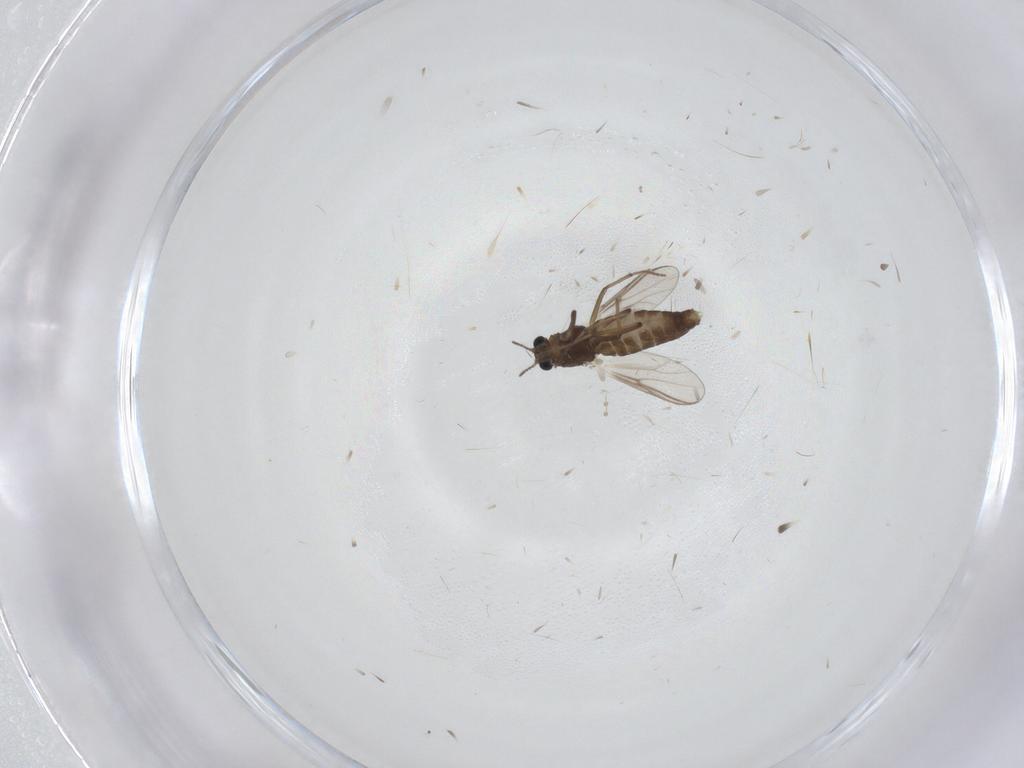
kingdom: Animalia
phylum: Arthropoda
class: Insecta
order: Diptera
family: Chironomidae
